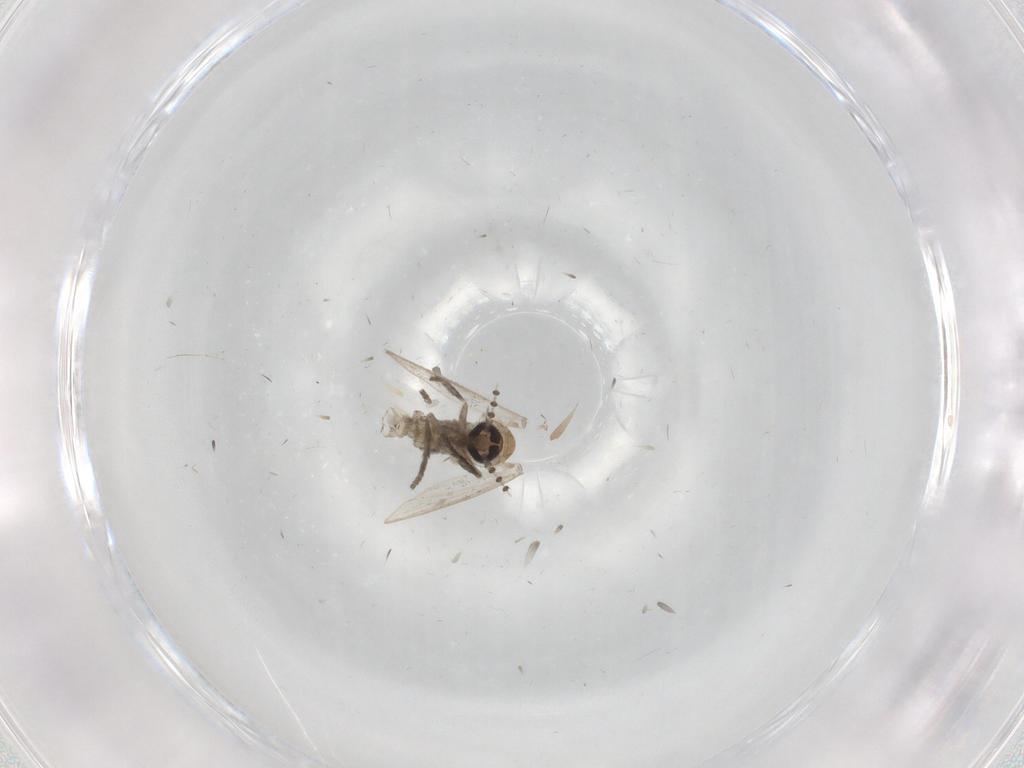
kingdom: Animalia
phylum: Arthropoda
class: Insecta
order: Diptera
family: Psychodidae
